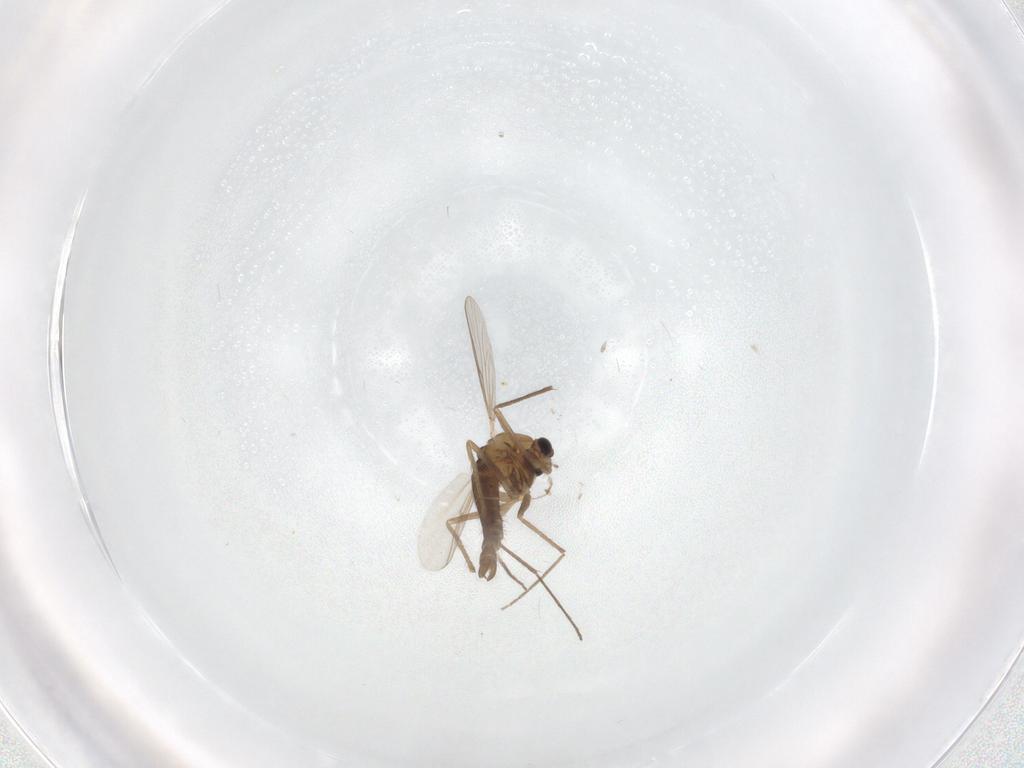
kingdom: Animalia
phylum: Arthropoda
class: Insecta
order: Diptera
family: Chironomidae
